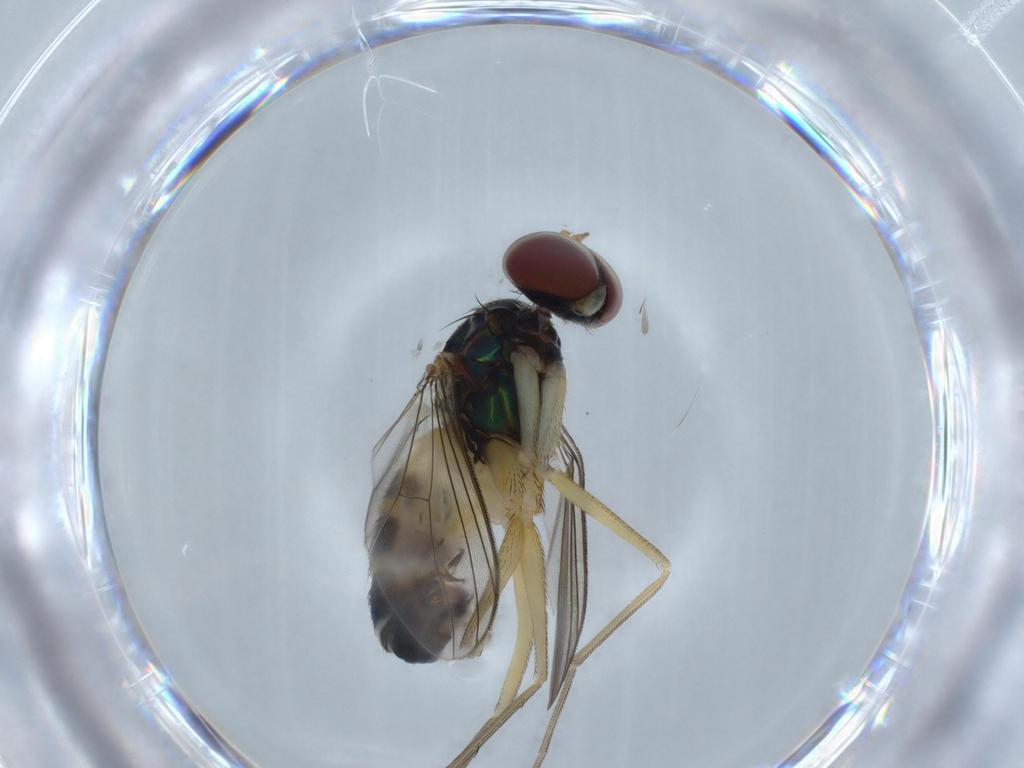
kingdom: Animalia
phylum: Arthropoda
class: Insecta
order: Diptera
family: Dolichopodidae
